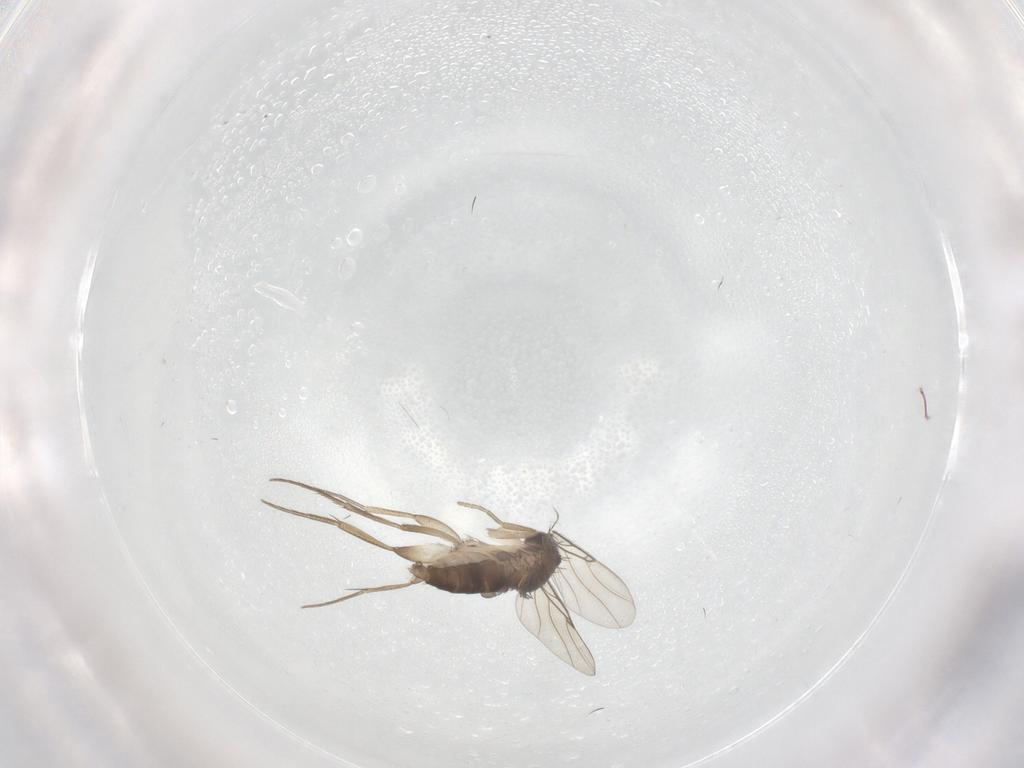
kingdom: Animalia
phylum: Arthropoda
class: Insecta
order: Diptera
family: Phoridae
